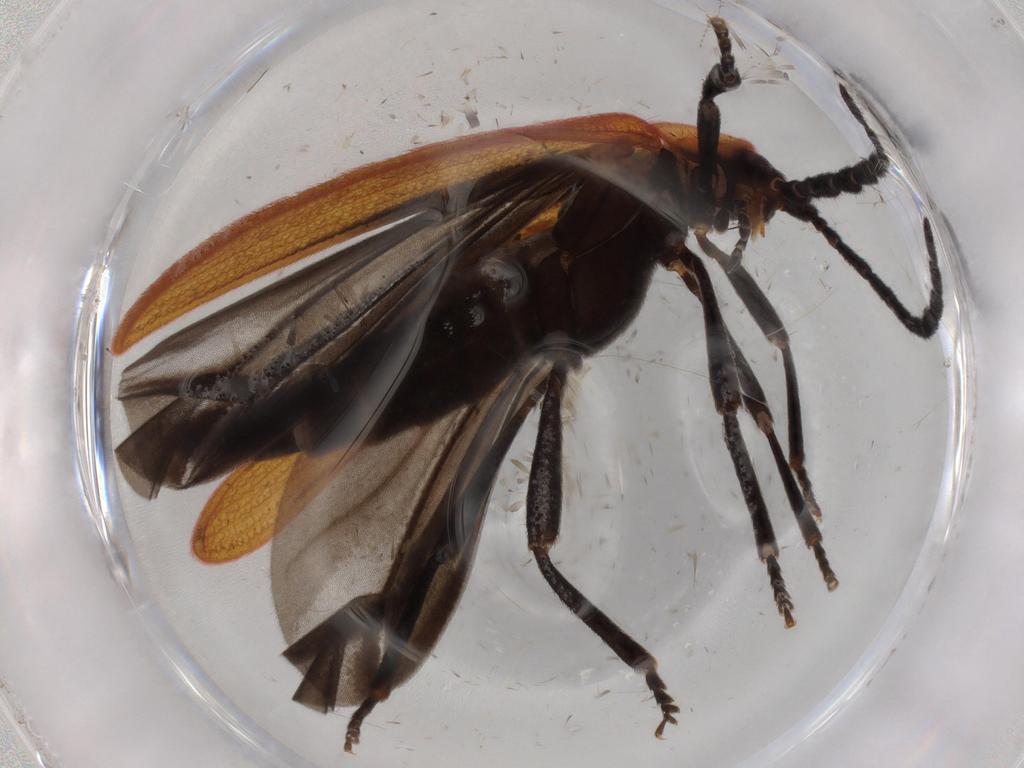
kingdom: Animalia
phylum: Arthropoda
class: Insecta
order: Coleoptera
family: Lycidae
